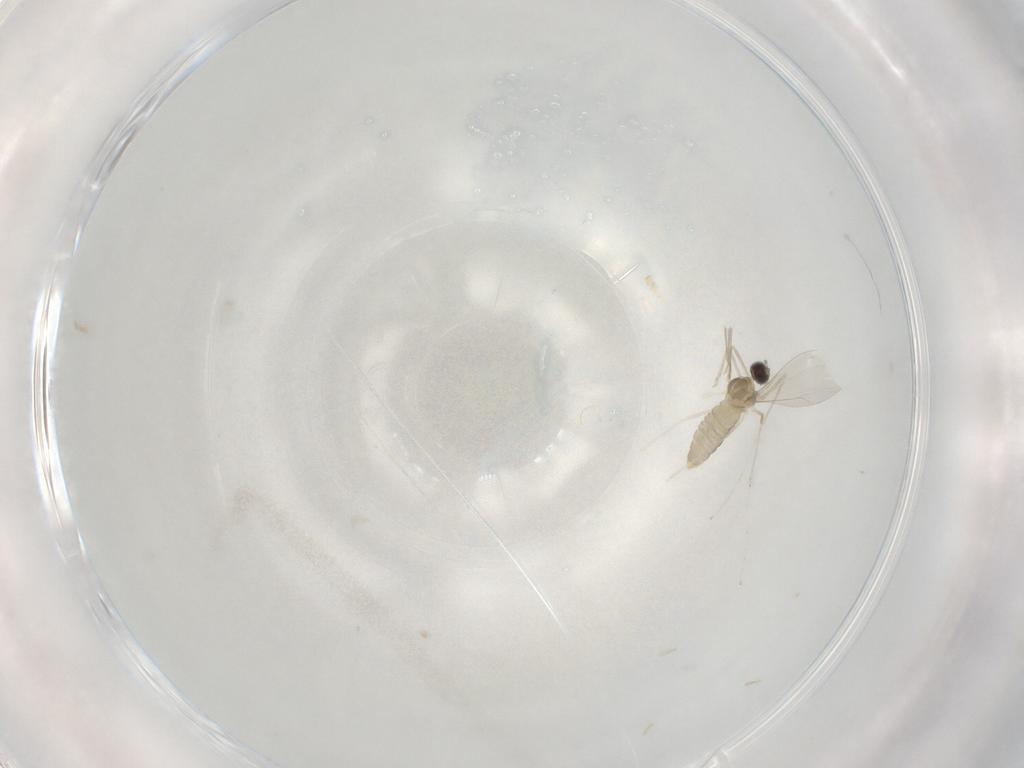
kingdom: Animalia
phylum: Arthropoda
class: Insecta
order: Diptera
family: Cecidomyiidae
